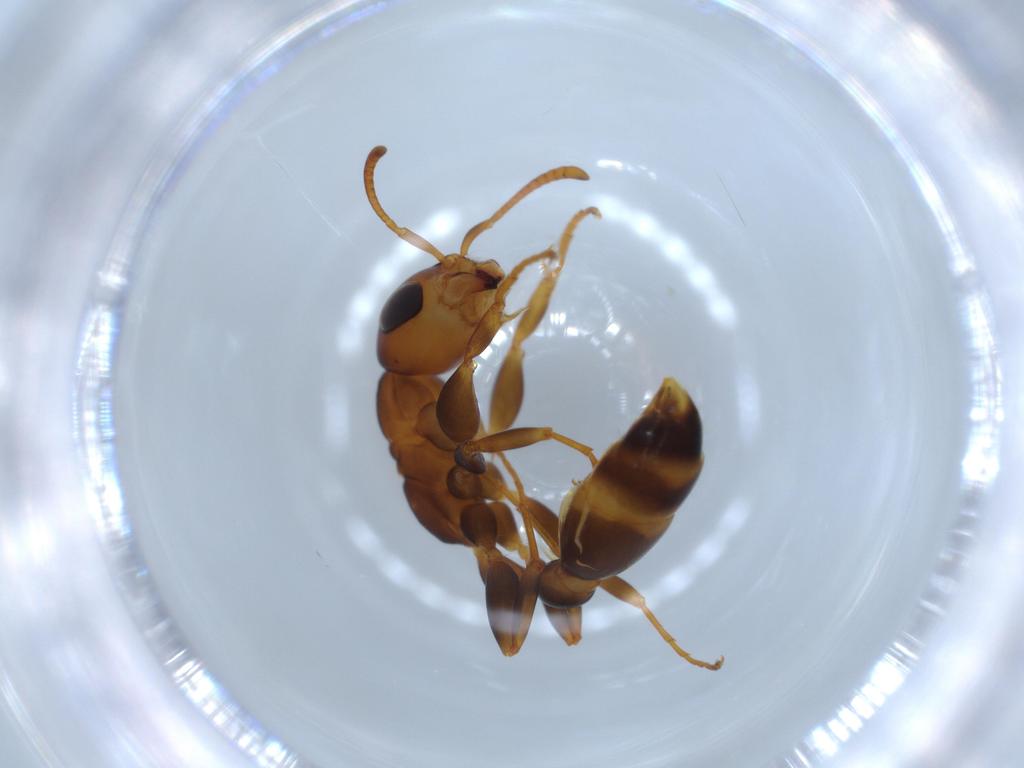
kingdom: Animalia
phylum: Arthropoda
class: Insecta
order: Hymenoptera
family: Formicidae
